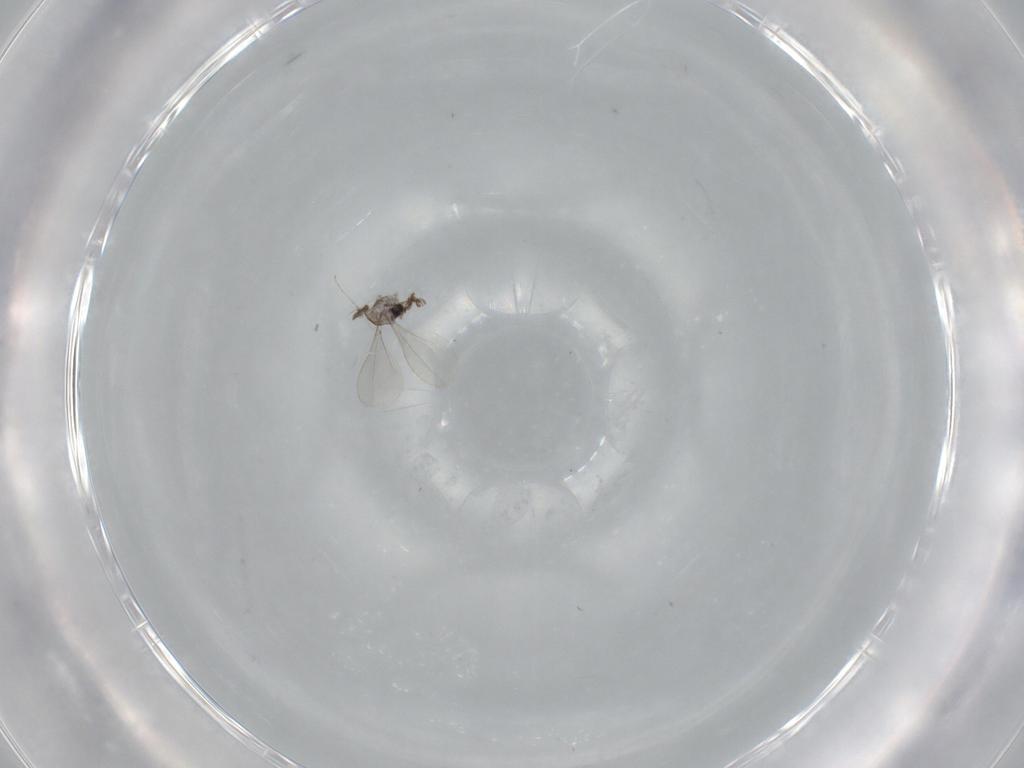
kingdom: Animalia
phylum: Arthropoda
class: Insecta
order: Diptera
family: Cecidomyiidae
